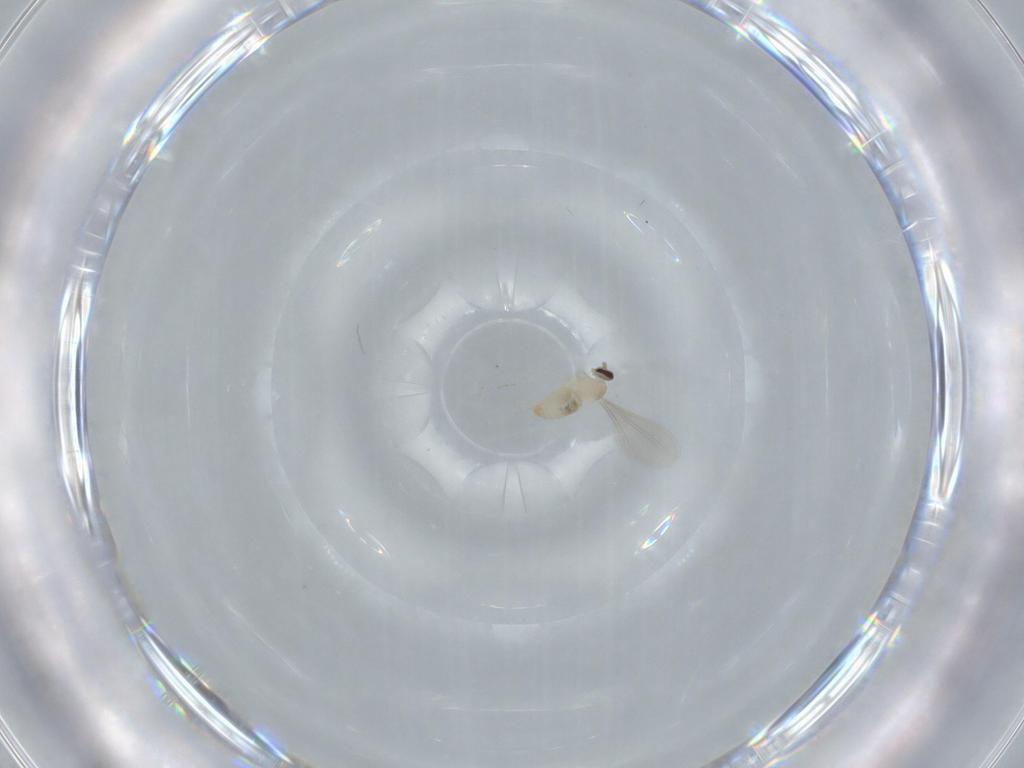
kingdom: Animalia
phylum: Arthropoda
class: Insecta
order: Diptera
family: Cecidomyiidae
